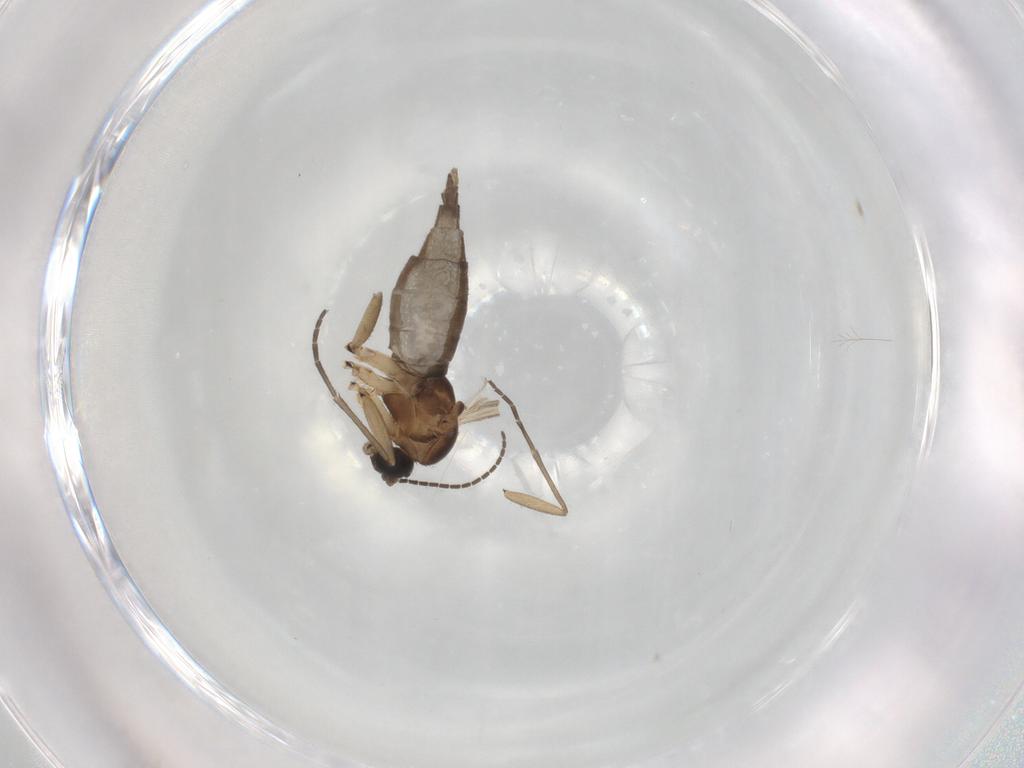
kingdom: Animalia
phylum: Arthropoda
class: Insecta
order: Diptera
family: Sciaridae
